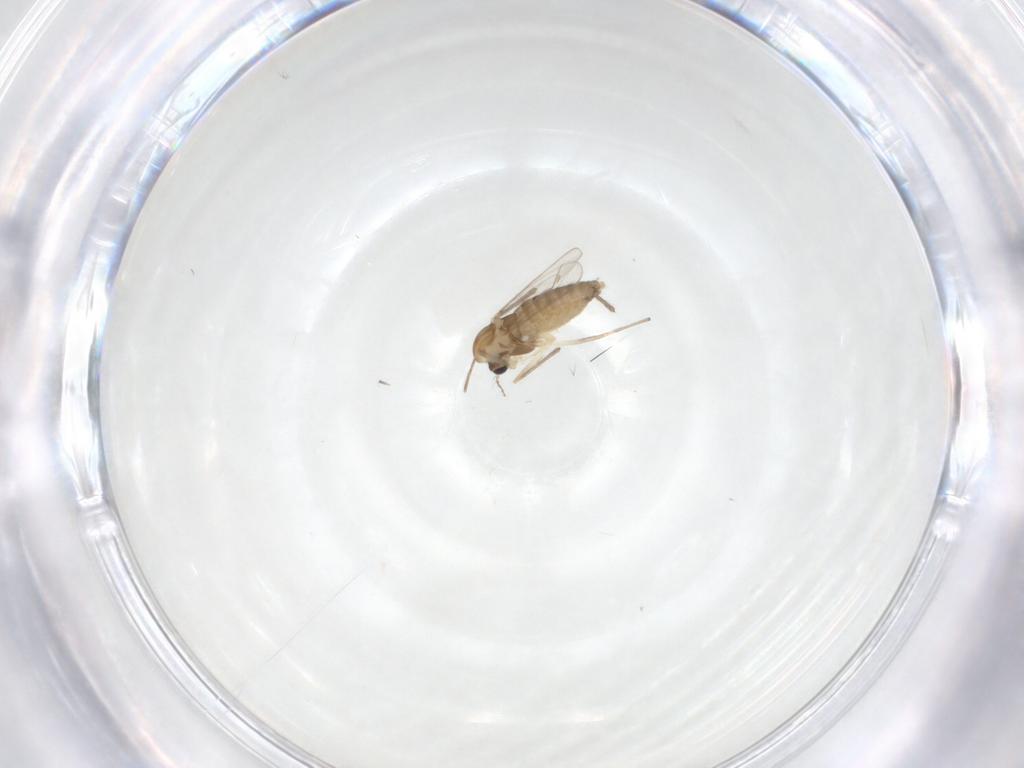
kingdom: Animalia
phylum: Arthropoda
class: Insecta
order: Diptera
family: Chironomidae
